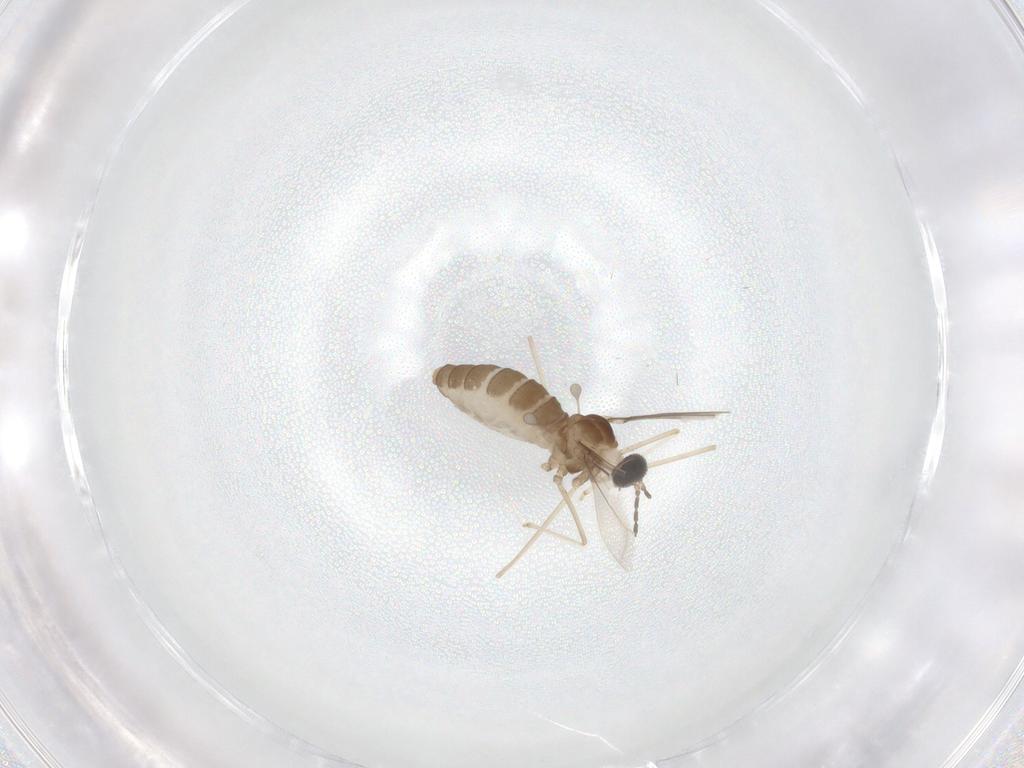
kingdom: Animalia
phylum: Arthropoda
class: Insecta
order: Diptera
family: Cecidomyiidae
